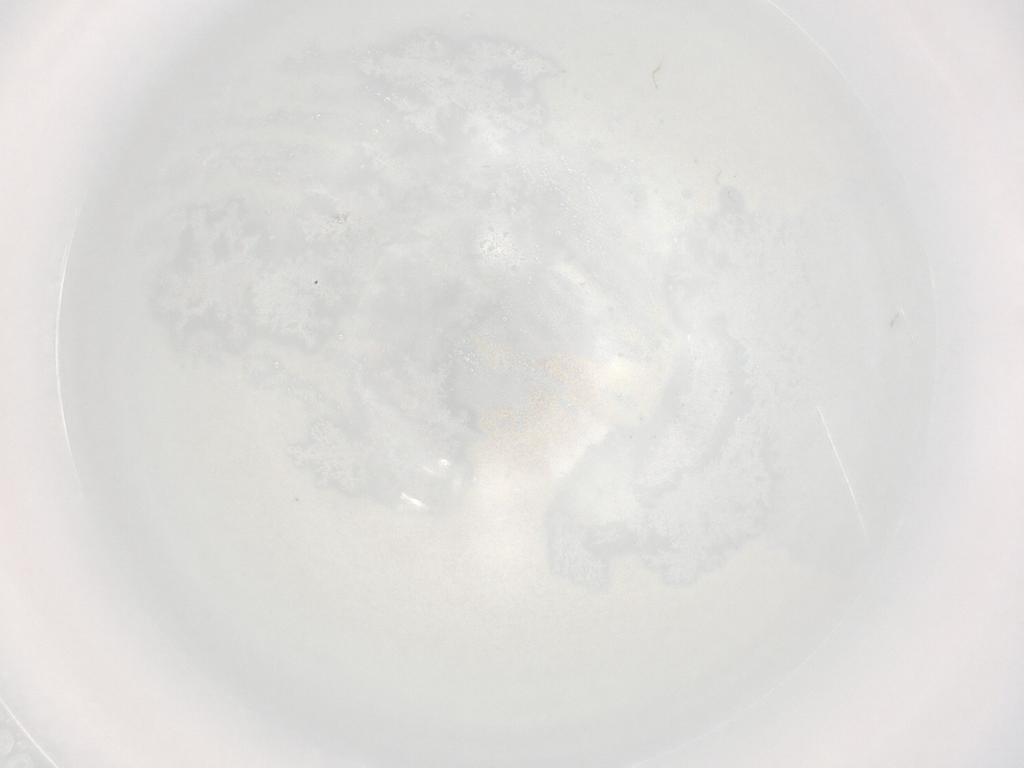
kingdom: Animalia
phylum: Arthropoda
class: Arachnida
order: Trombidiformes
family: Arrenuridae
